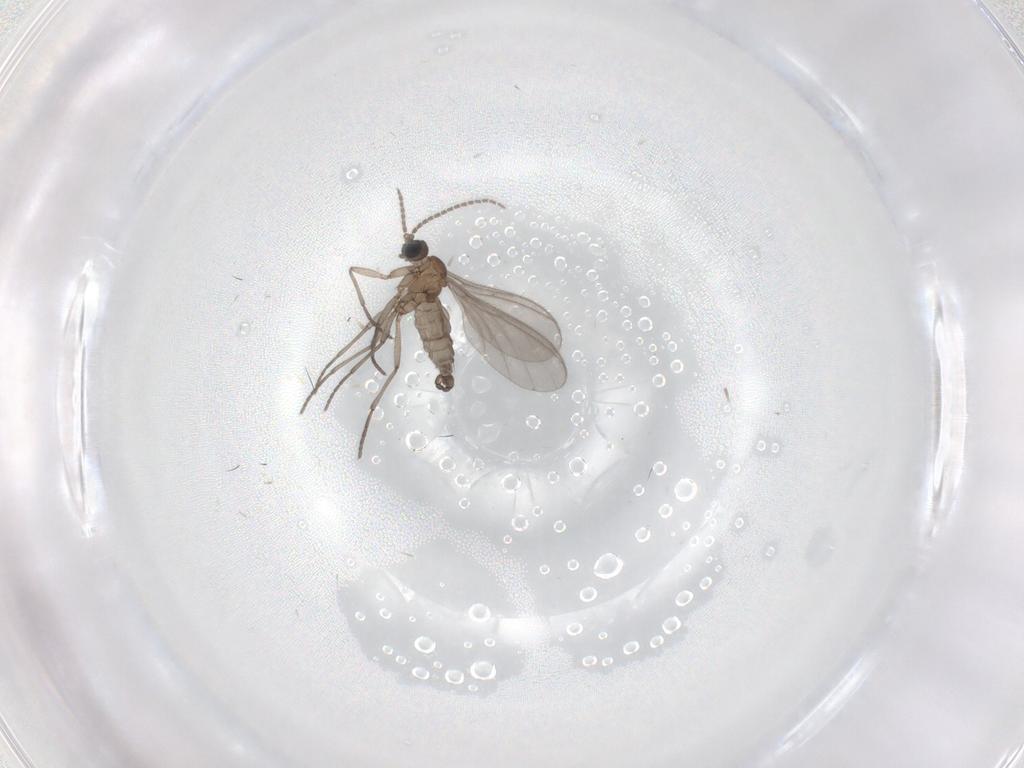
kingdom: Animalia
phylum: Arthropoda
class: Insecta
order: Diptera
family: Sciaridae
